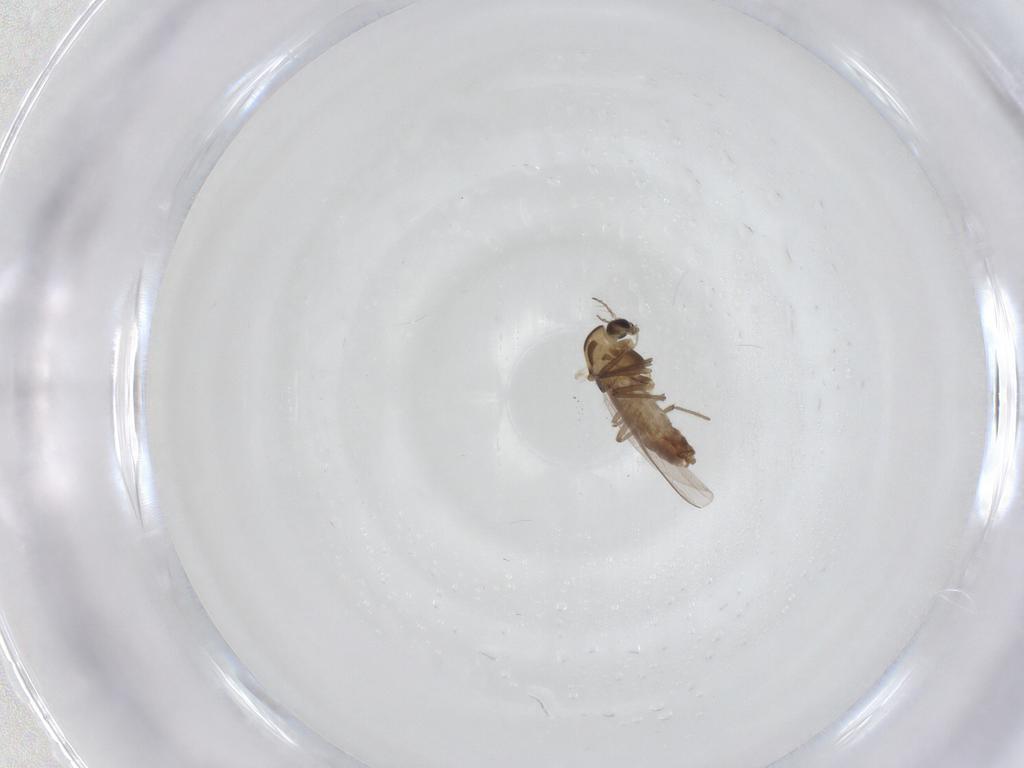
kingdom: Animalia
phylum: Arthropoda
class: Insecta
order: Diptera
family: Chironomidae
